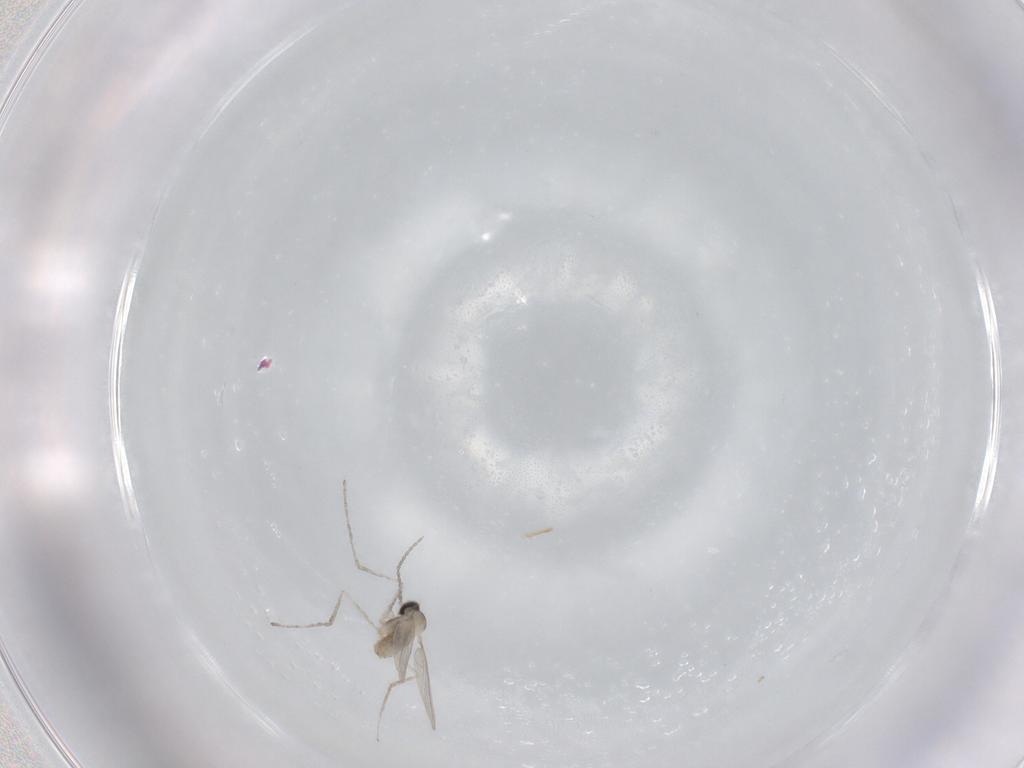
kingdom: Animalia
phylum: Arthropoda
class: Insecta
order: Diptera
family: Cecidomyiidae
